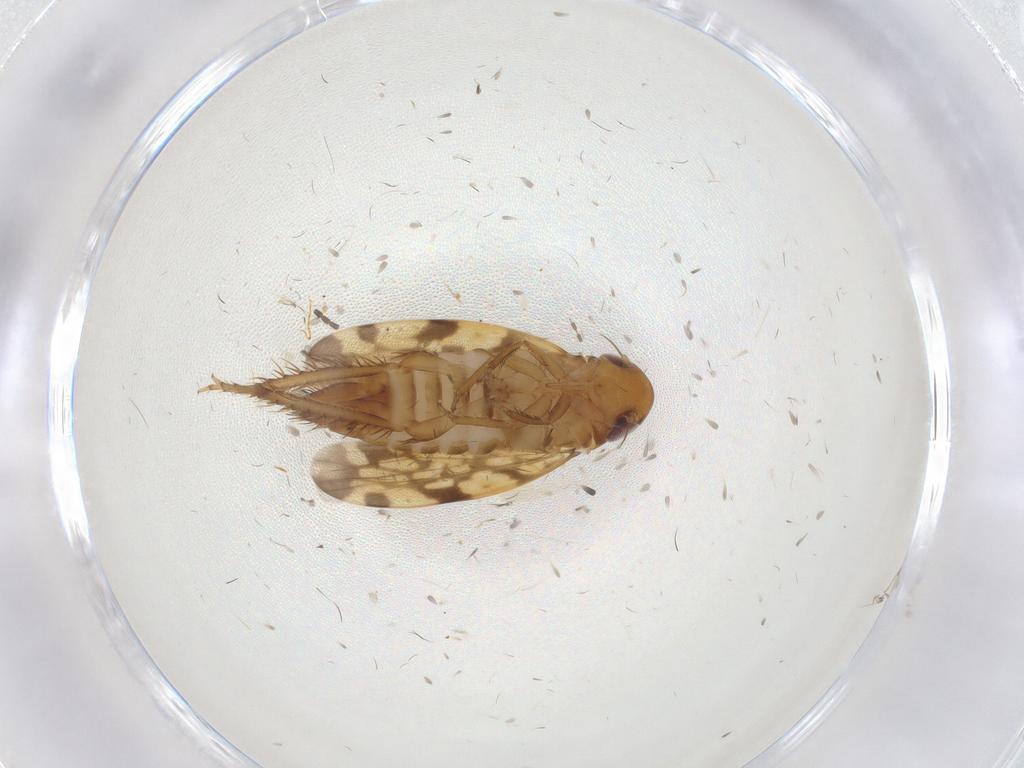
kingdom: Animalia
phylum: Arthropoda
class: Insecta
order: Hemiptera
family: Cicadellidae
